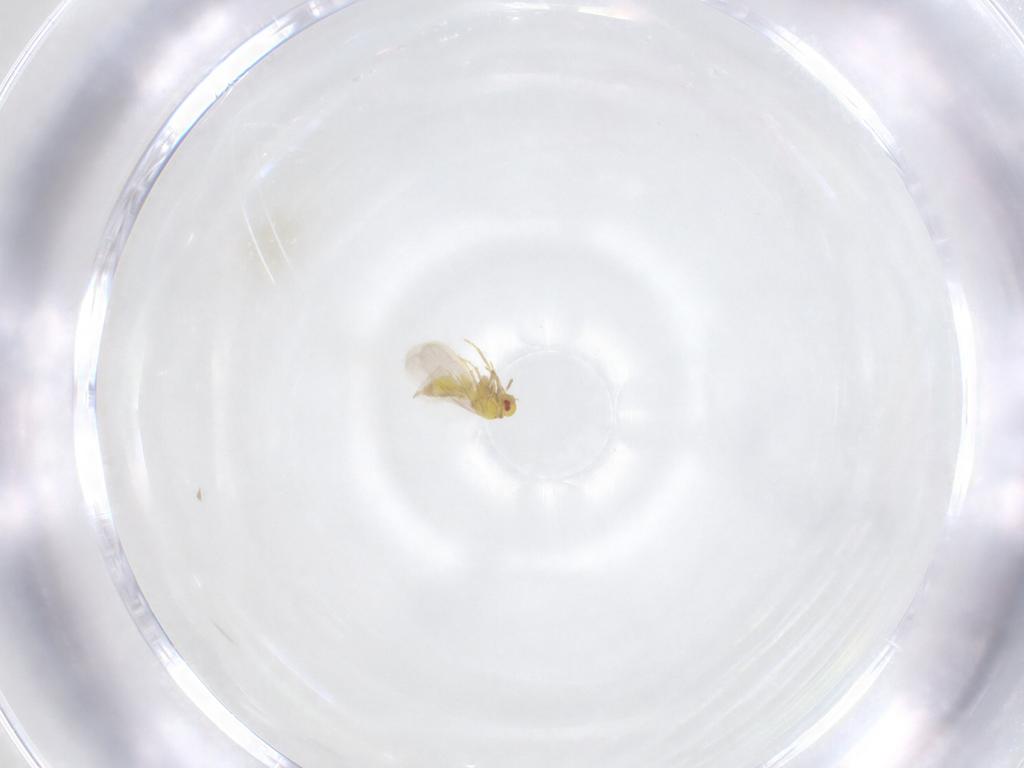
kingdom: Animalia
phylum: Arthropoda
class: Insecta
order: Hemiptera
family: Aleyrodidae
